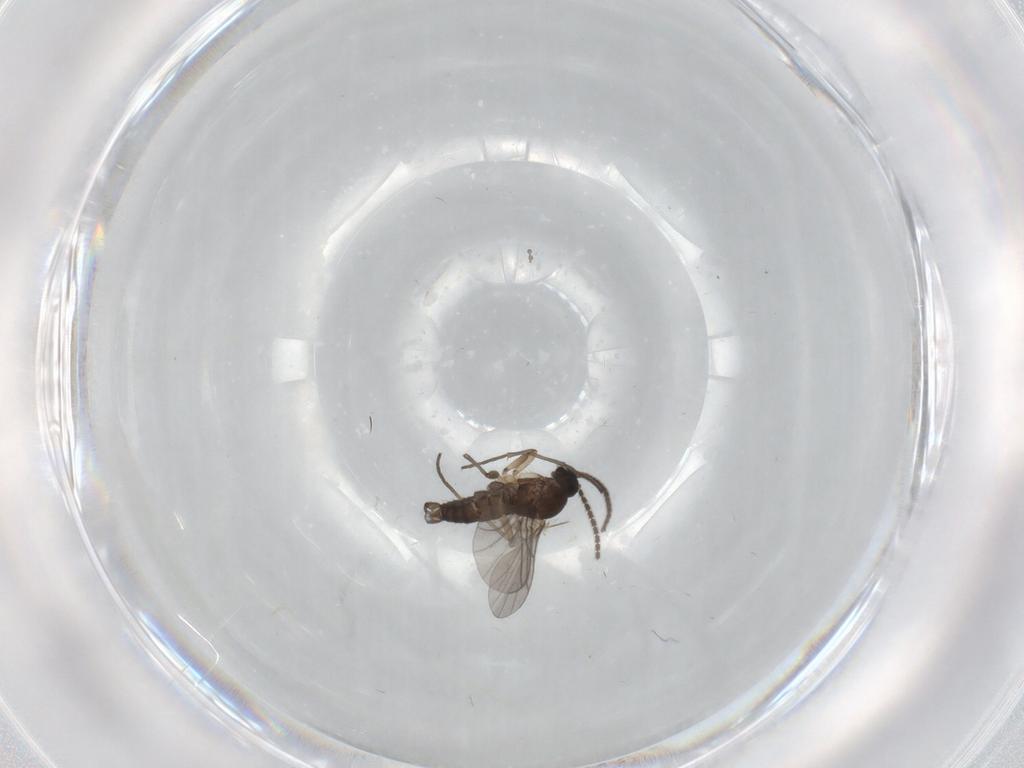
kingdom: Animalia
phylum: Arthropoda
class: Insecta
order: Diptera
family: Sciaridae
